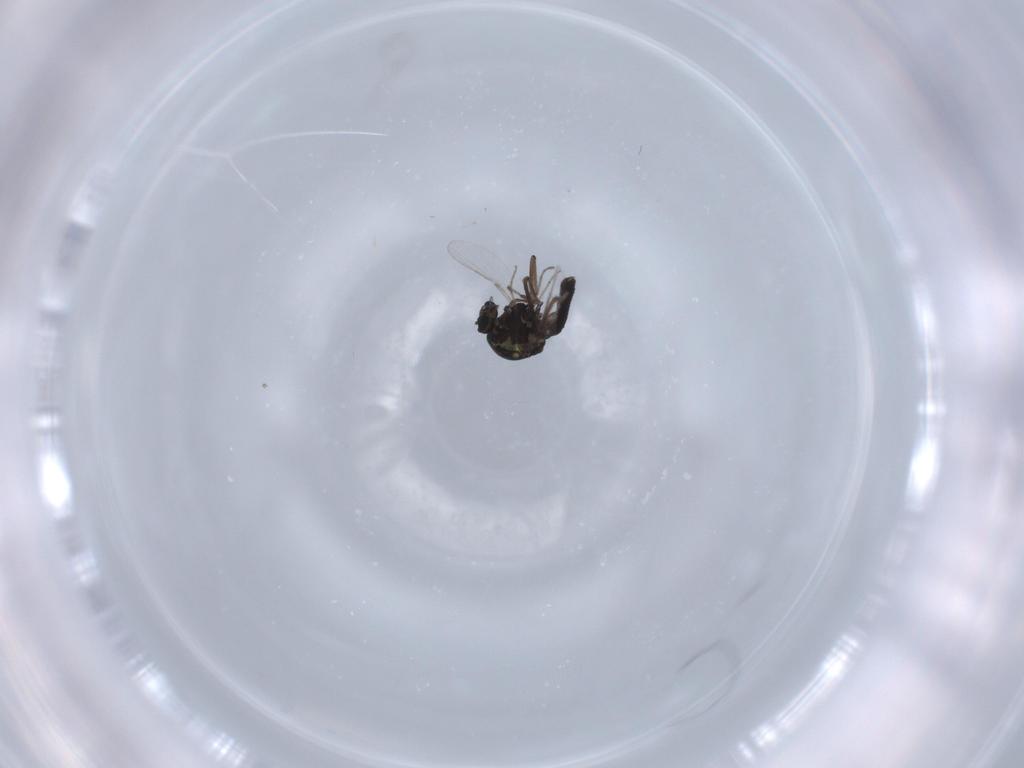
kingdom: Animalia
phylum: Arthropoda
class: Insecta
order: Diptera
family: Ceratopogonidae
